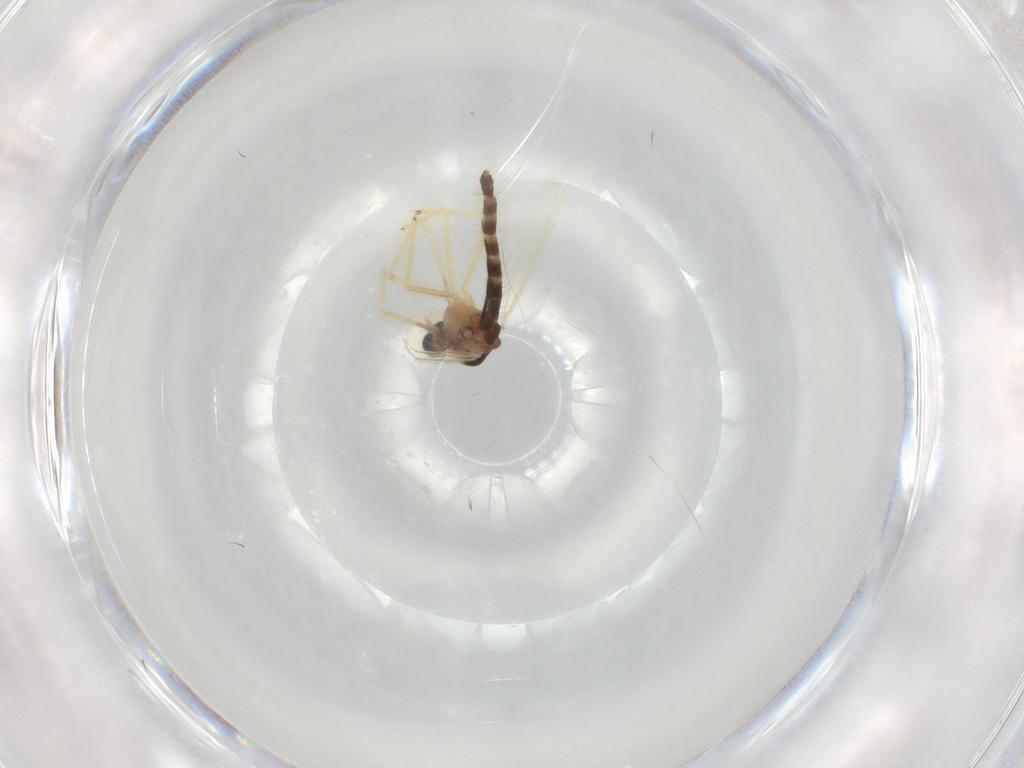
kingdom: Animalia
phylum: Arthropoda
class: Insecta
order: Diptera
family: Chironomidae
